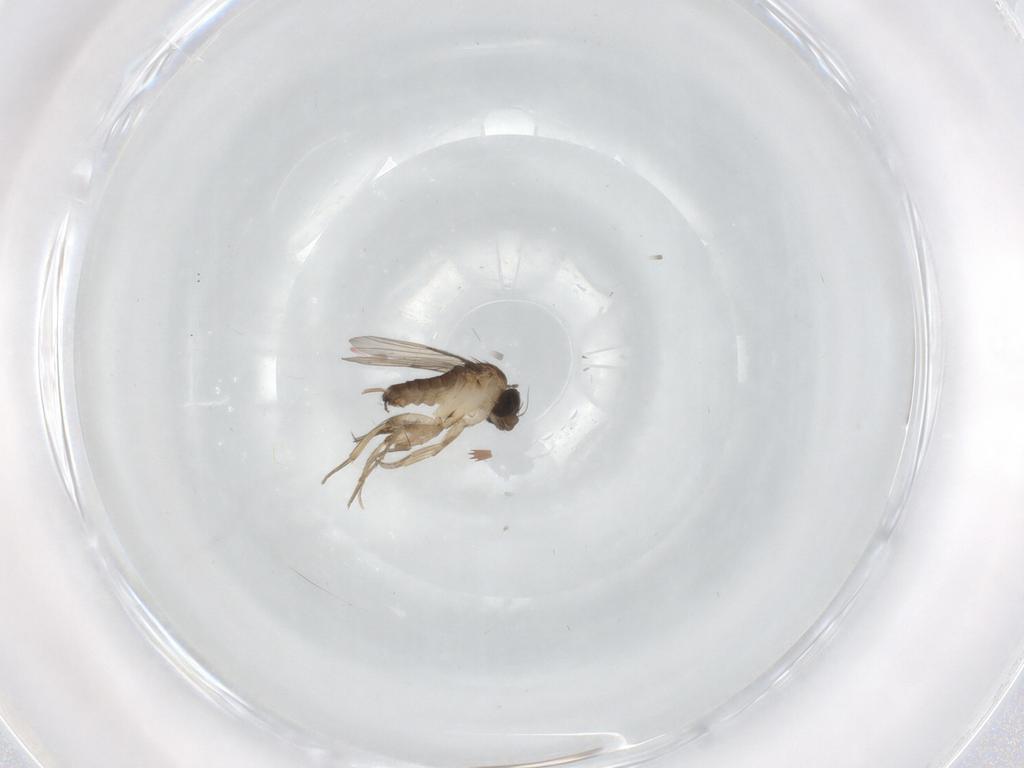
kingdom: Animalia
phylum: Arthropoda
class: Insecta
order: Diptera
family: Phoridae
